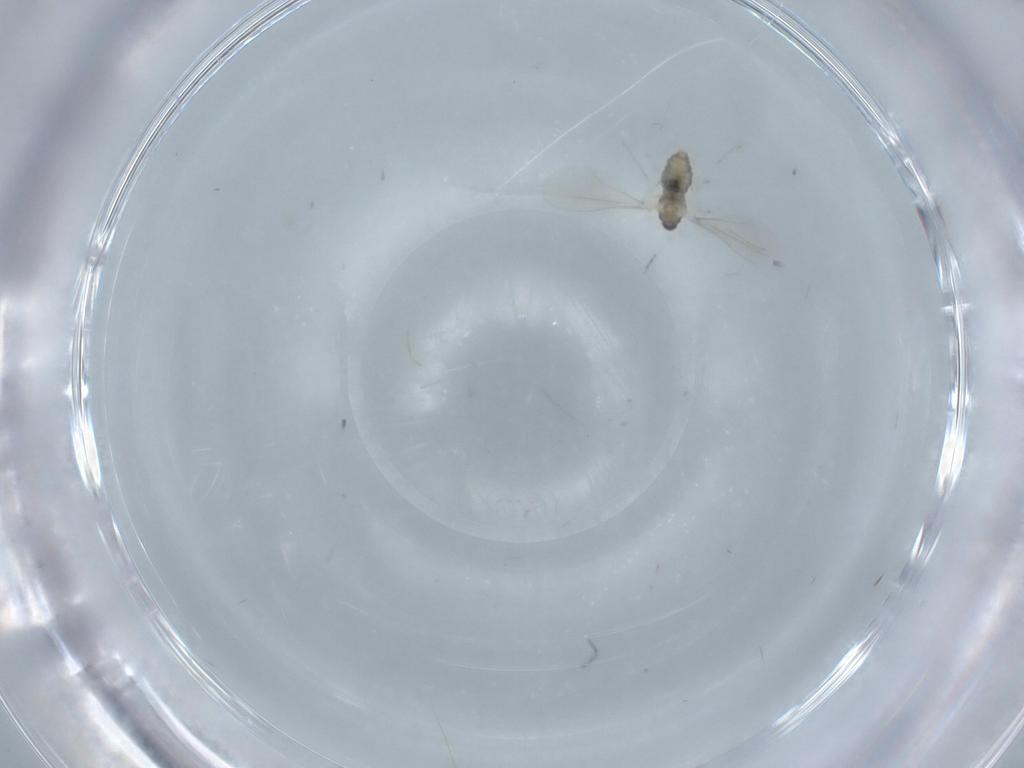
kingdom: Animalia
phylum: Arthropoda
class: Insecta
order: Diptera
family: Cecidomyiidae
